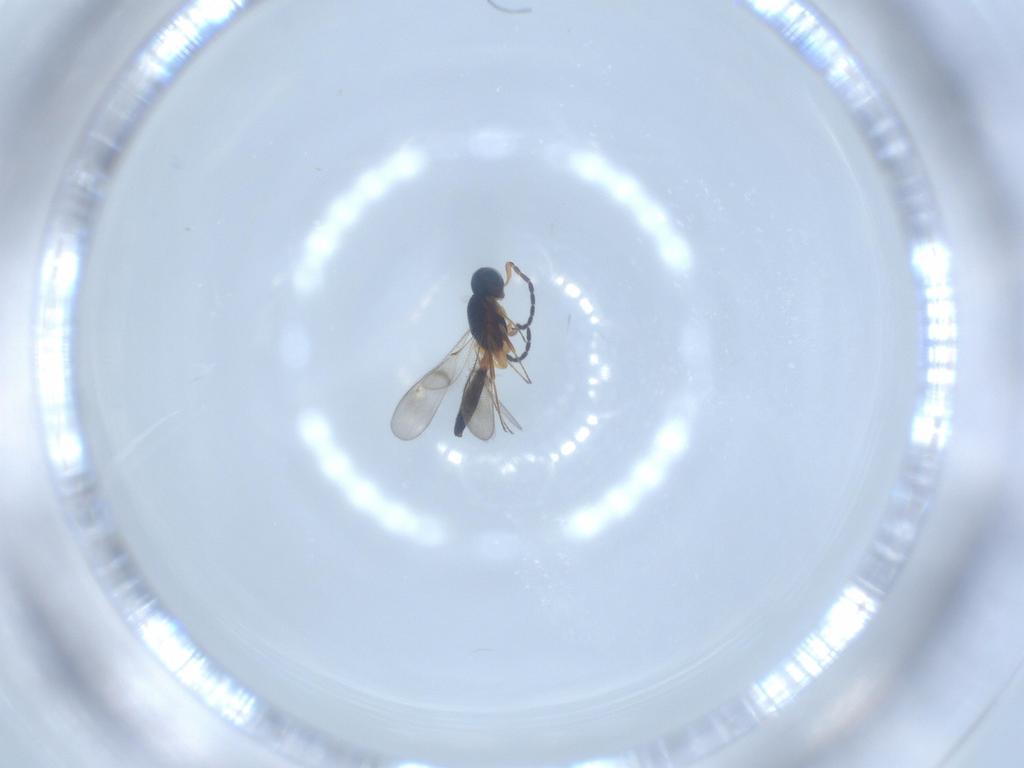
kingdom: Animalia
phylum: Arthropoda
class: Insecta
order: Hymenoptera
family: Scelionidae
